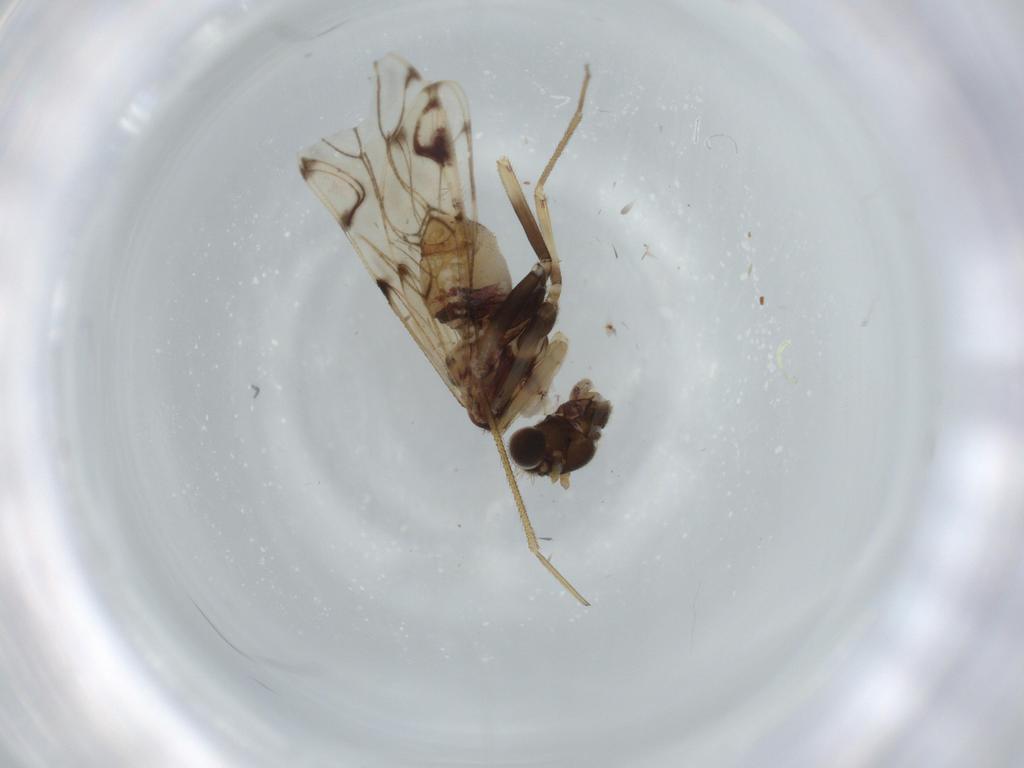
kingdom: Animalia
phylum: Arthropoda
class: Insecta
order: Psocodea
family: Epipsocidae
